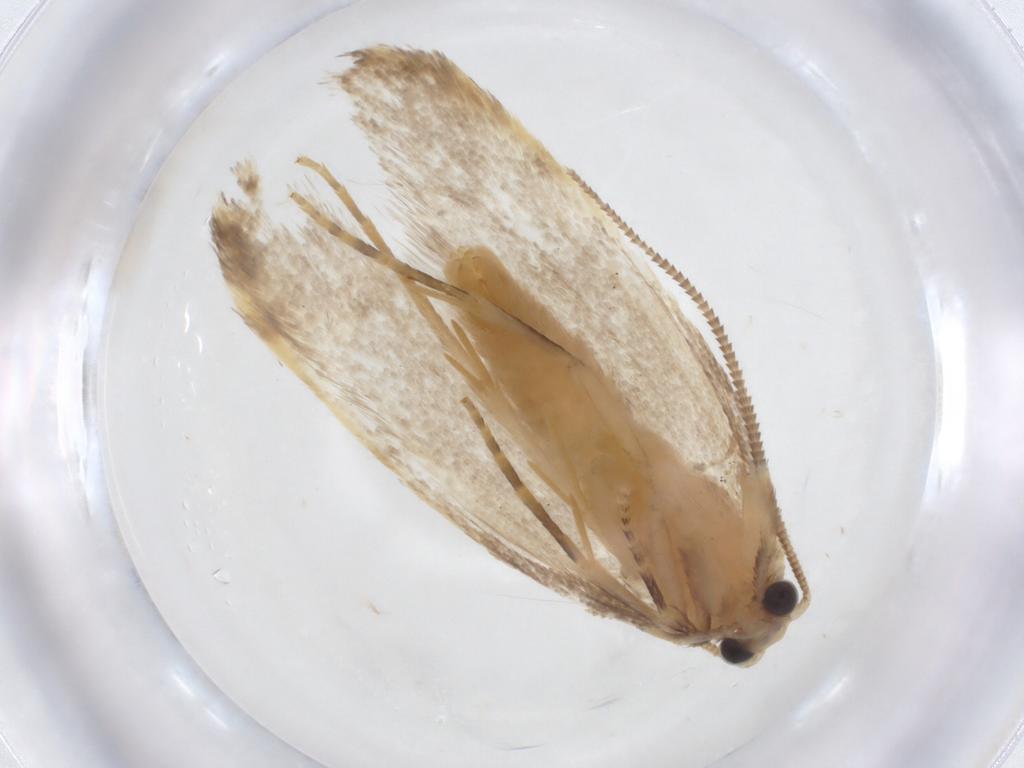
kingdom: Animalia
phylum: Arthropoda
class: Insecta
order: Lepidoptera
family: Tineidae
